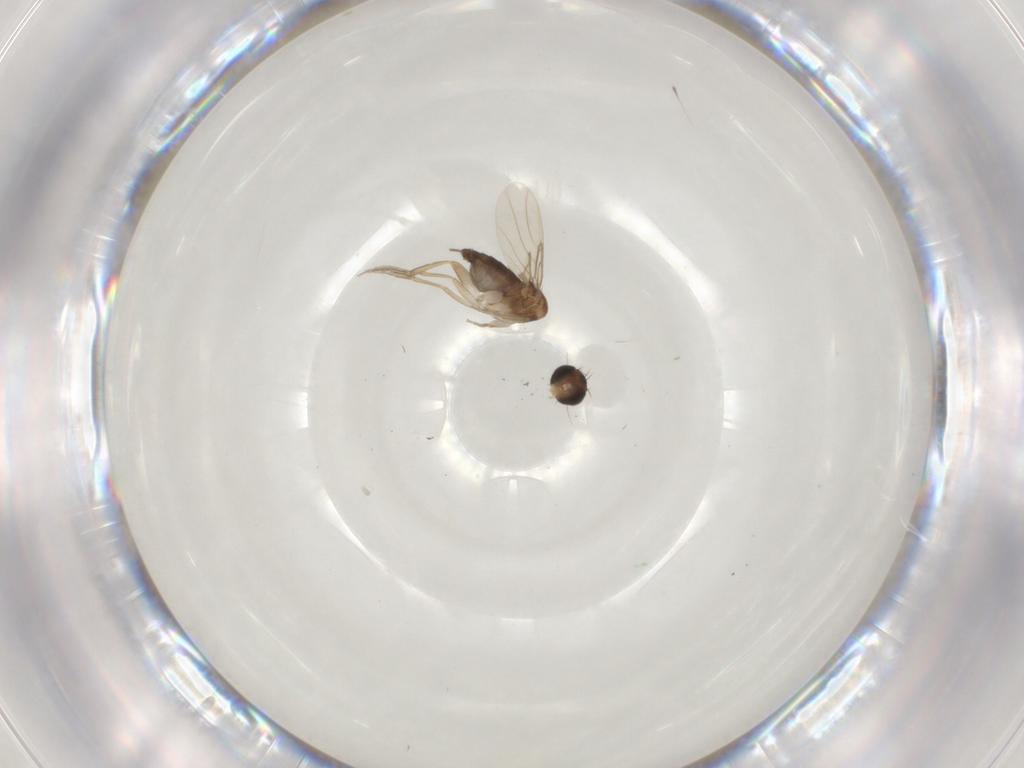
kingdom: Animalia
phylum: Arthropoda
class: Insecta
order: Diptera
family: Phoridae
